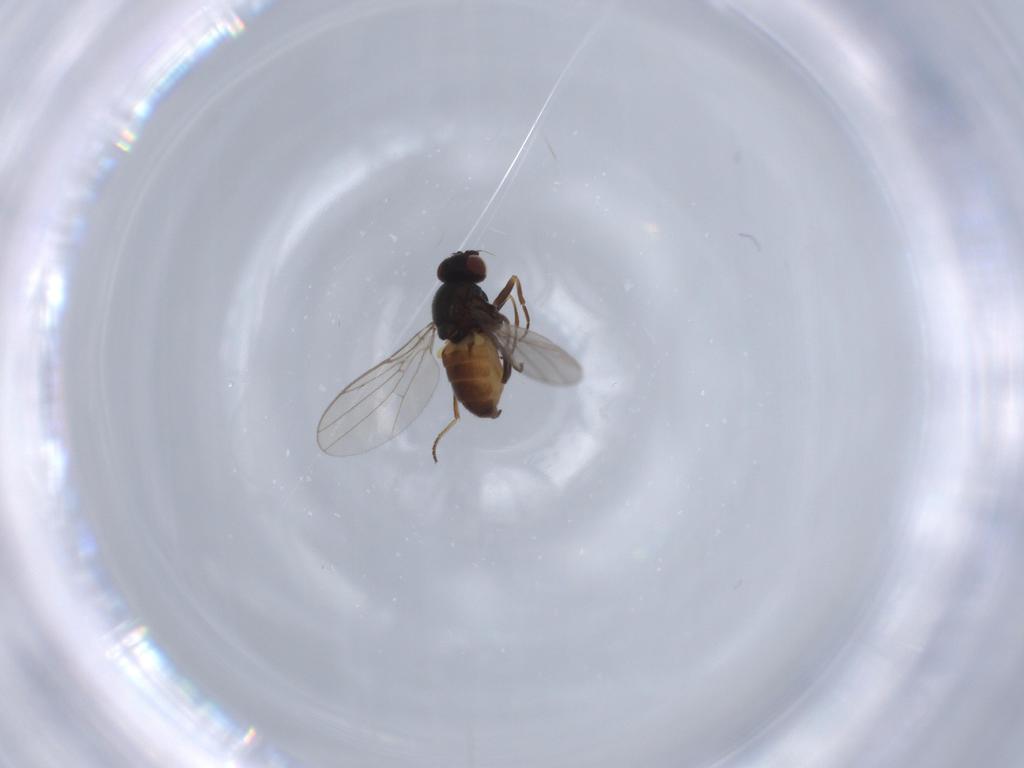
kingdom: Animalia
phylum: Arthropoda
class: Insecta
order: Diptera
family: Chloropidae
